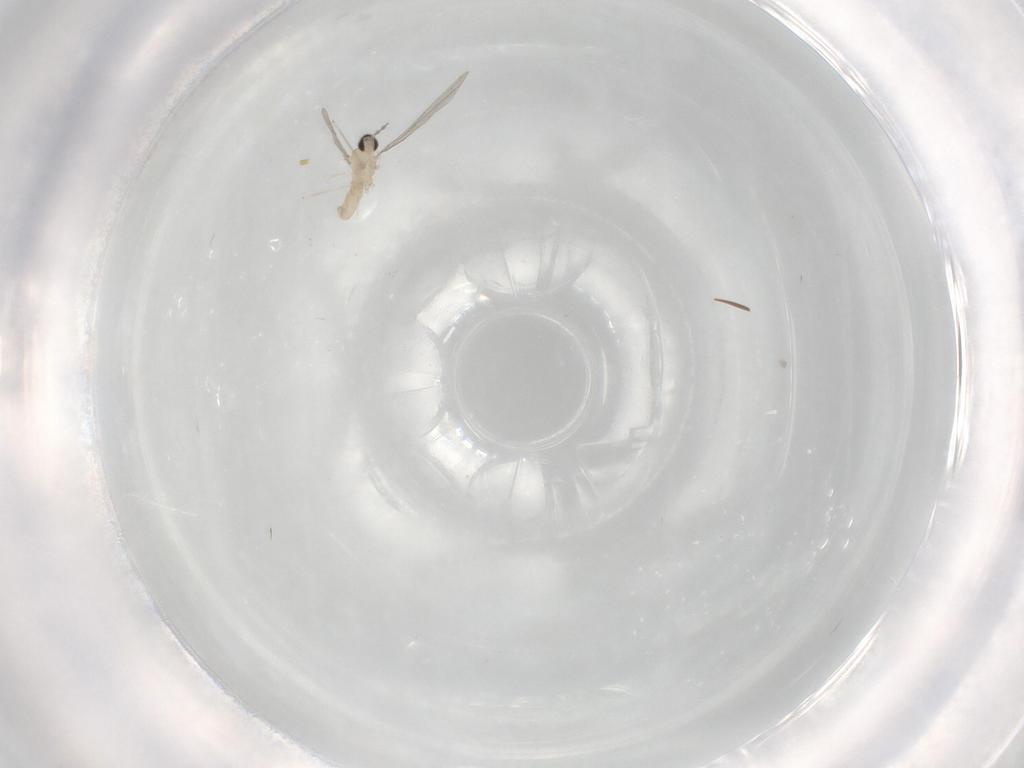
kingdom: Animalia
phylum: Arthropoda
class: Insecta
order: Diptera
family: Cecidomyiidae
